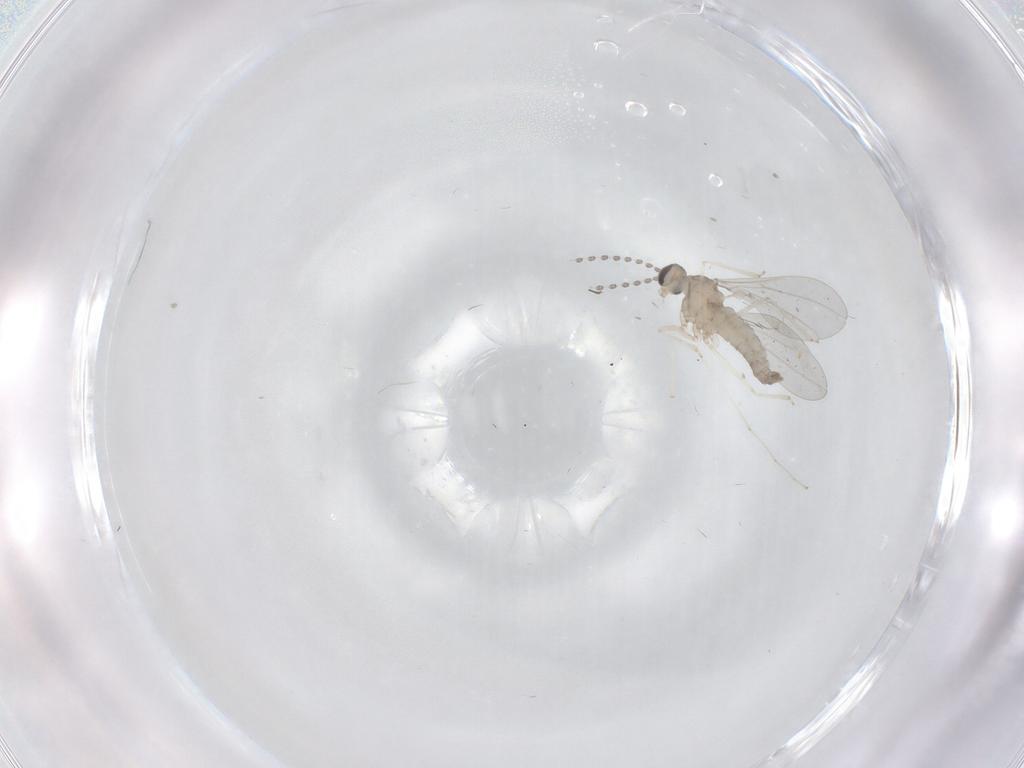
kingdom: Animalia
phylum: Arthropoda
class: Insecta
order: Diptera
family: Cecidomyiidae
